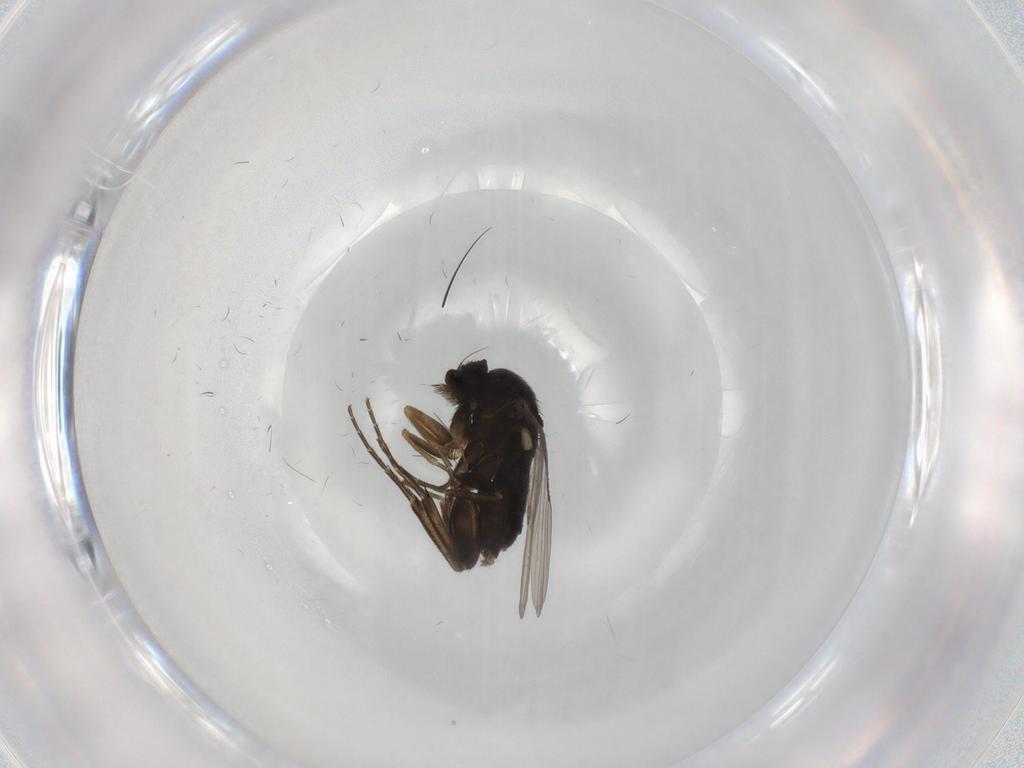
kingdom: Animalia
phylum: Arthropoda
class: Insecta
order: Diptera
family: Phoridae
